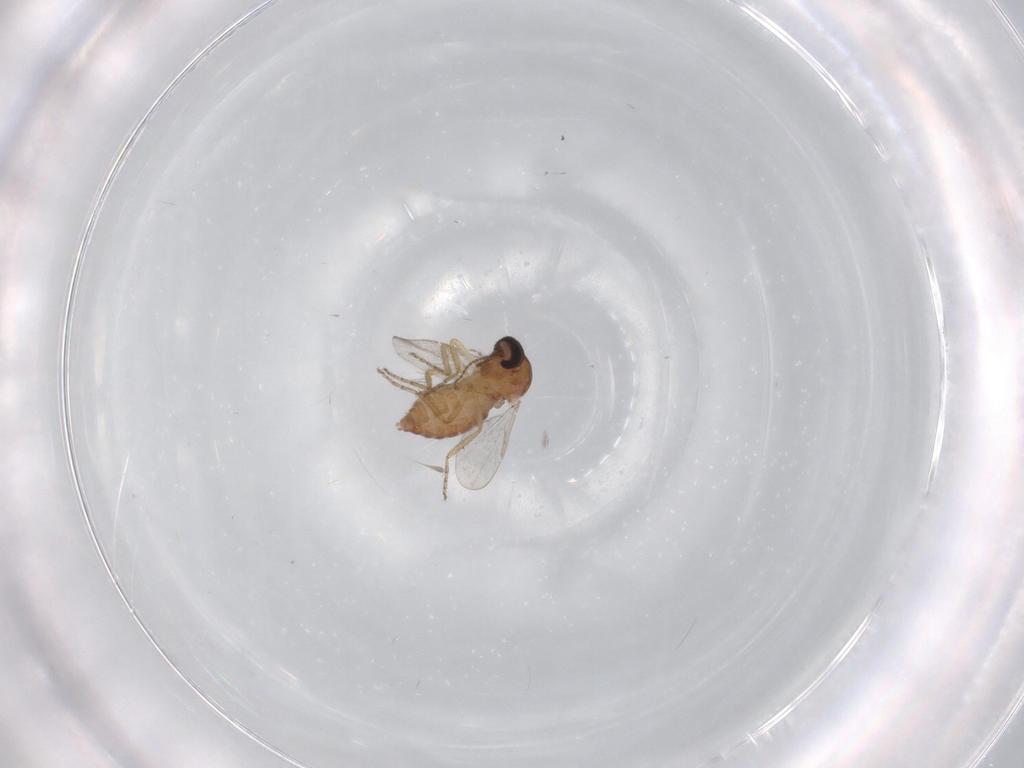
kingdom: Animalia
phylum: Arthropoda
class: Insecta
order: Diptera
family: Ceratopogonidae
